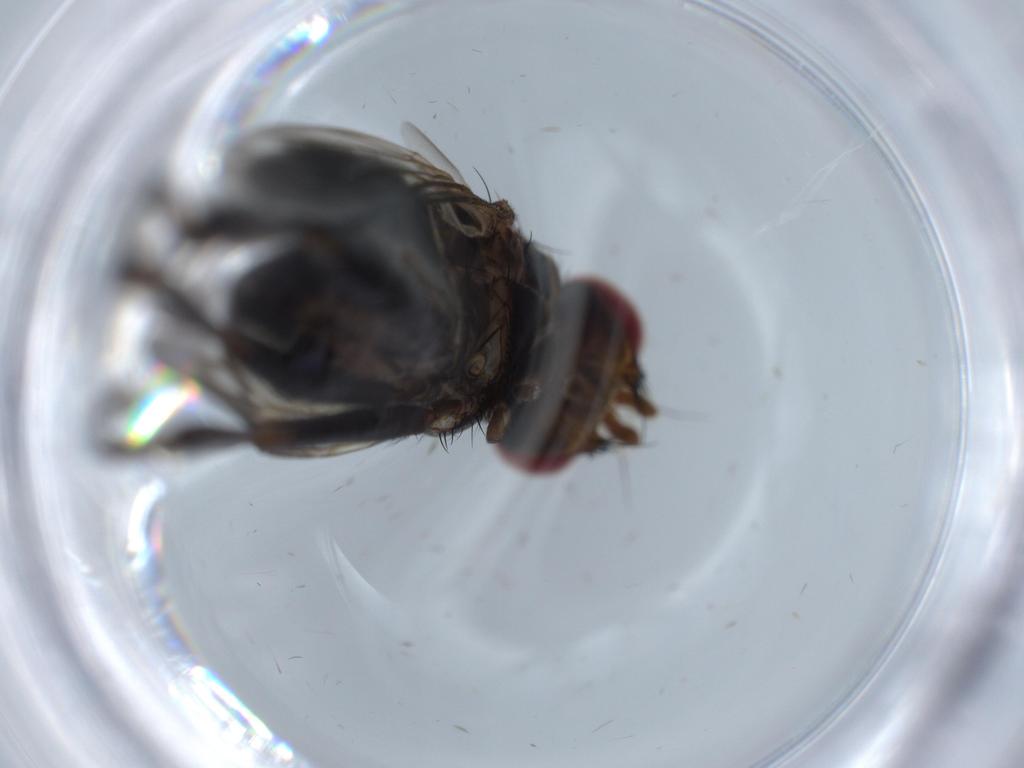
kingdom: Animalia
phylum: Arthropoda
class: Insecta
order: Diptera
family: Calliphoridae
